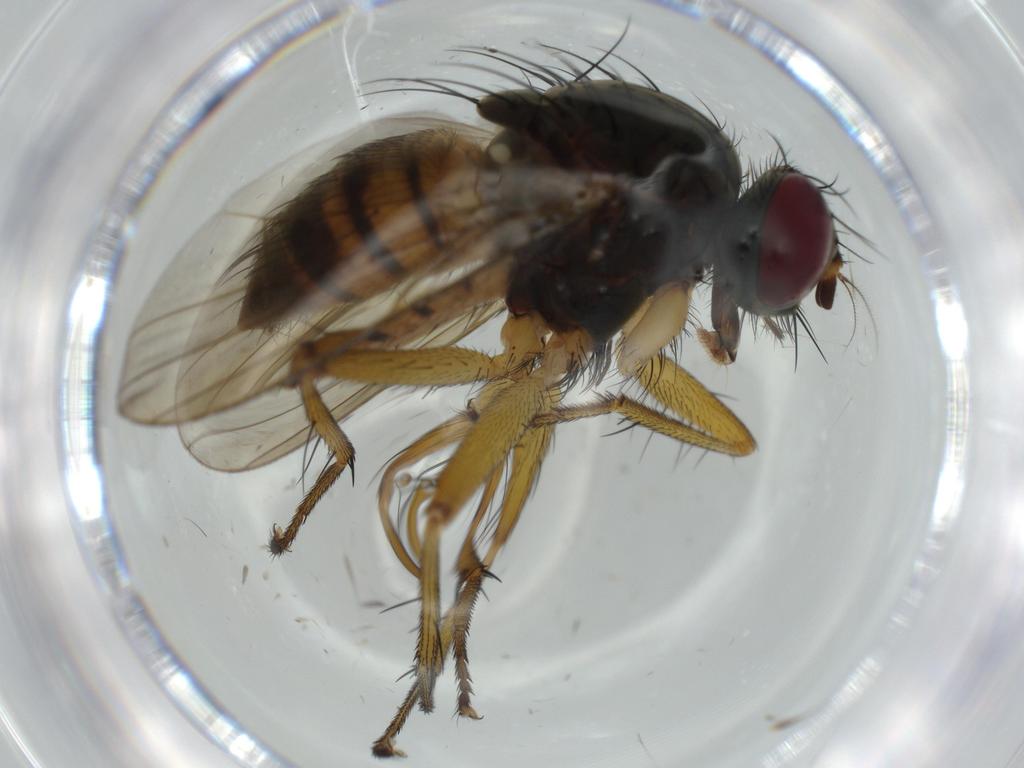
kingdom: Animalia
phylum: Arthropoda
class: Insecta
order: Diptera
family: Muscidae
